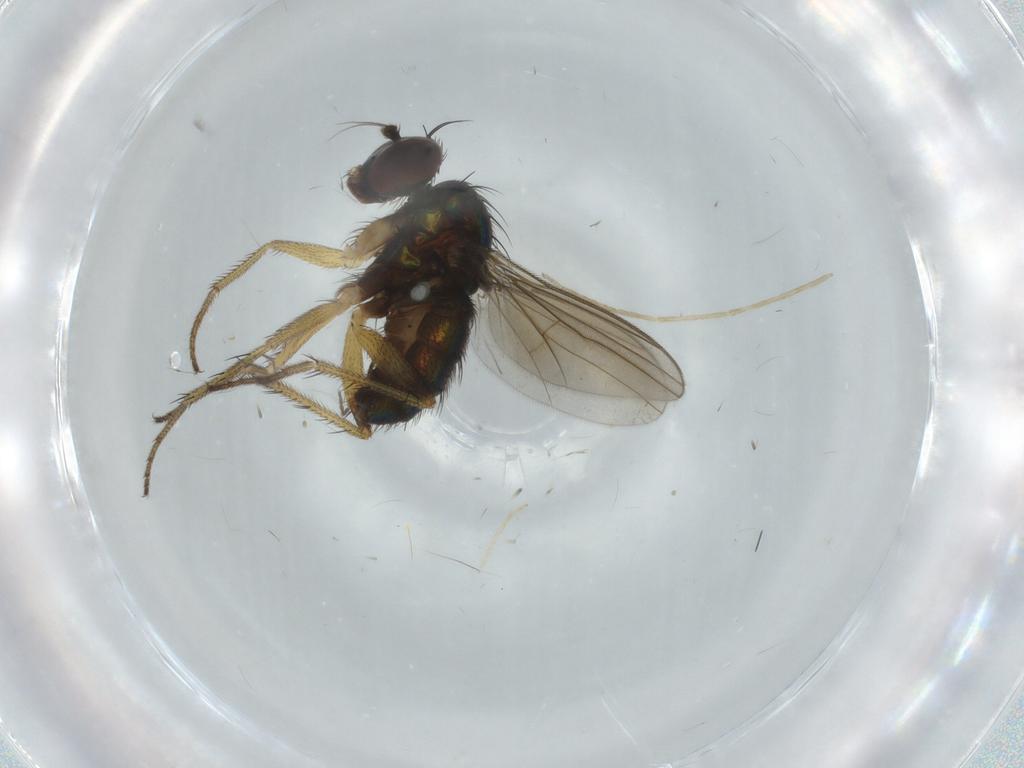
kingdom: Animalia
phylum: Arthropoda
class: Insecta
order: Diptera
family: Dolichopodidae
